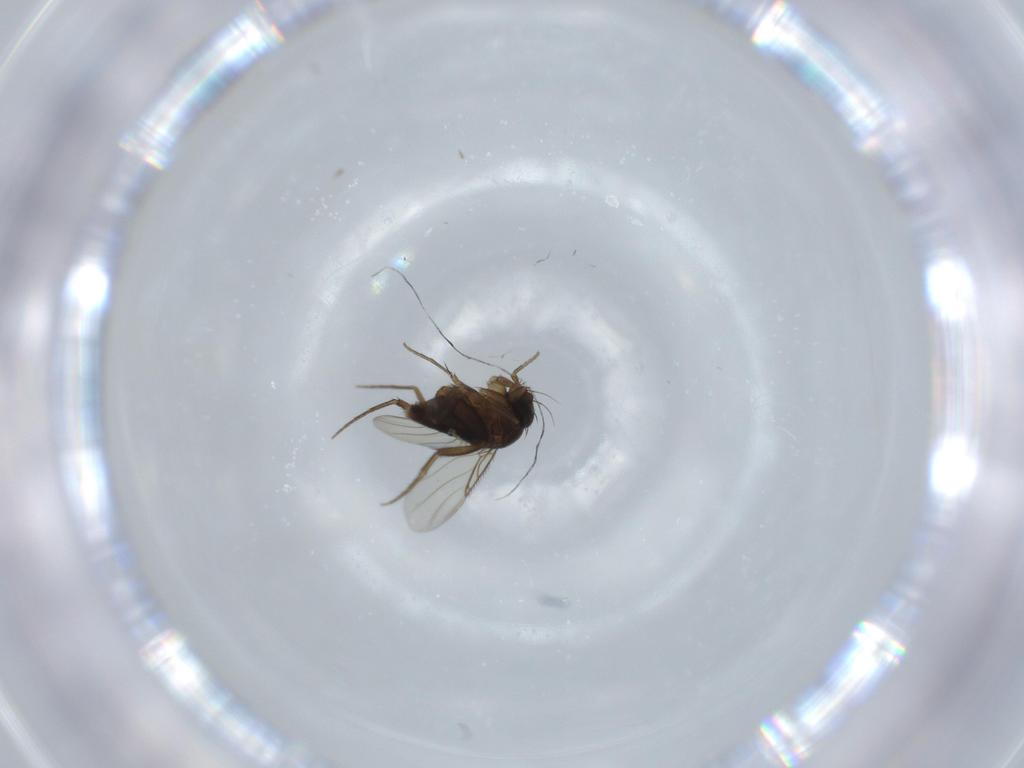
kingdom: Animalia
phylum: Arthropoda
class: Insecta
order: Diptera
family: Phoridae
